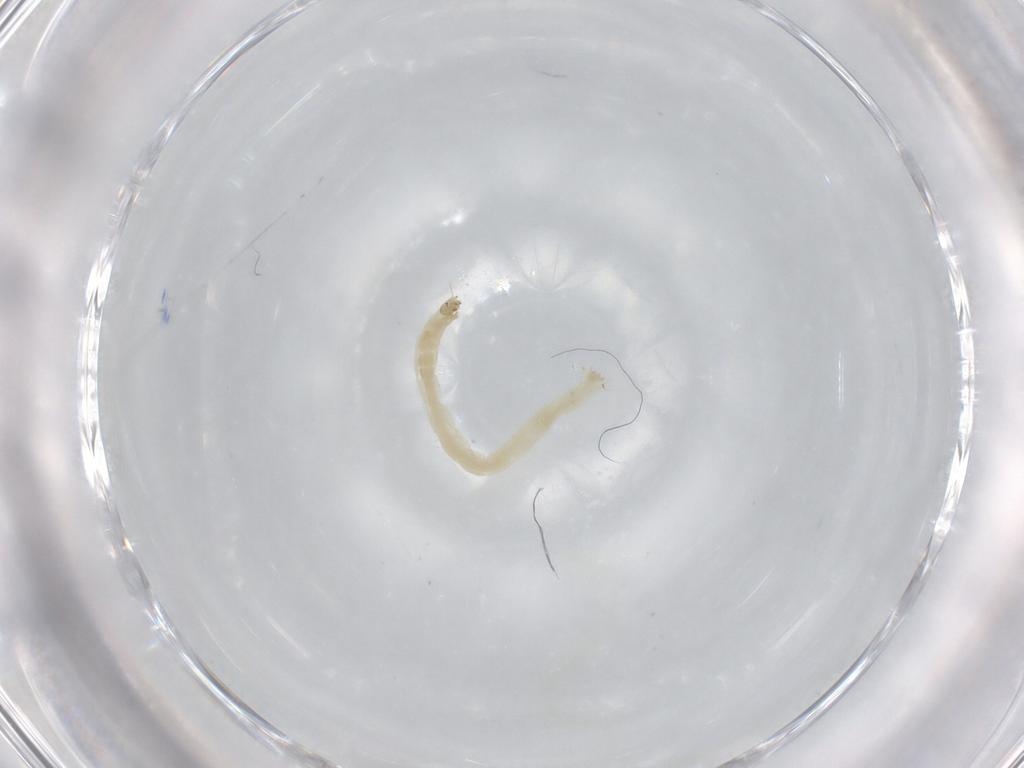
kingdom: Animalia
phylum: Arthropoda
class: Insecta
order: Diptera
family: Chironomidae
